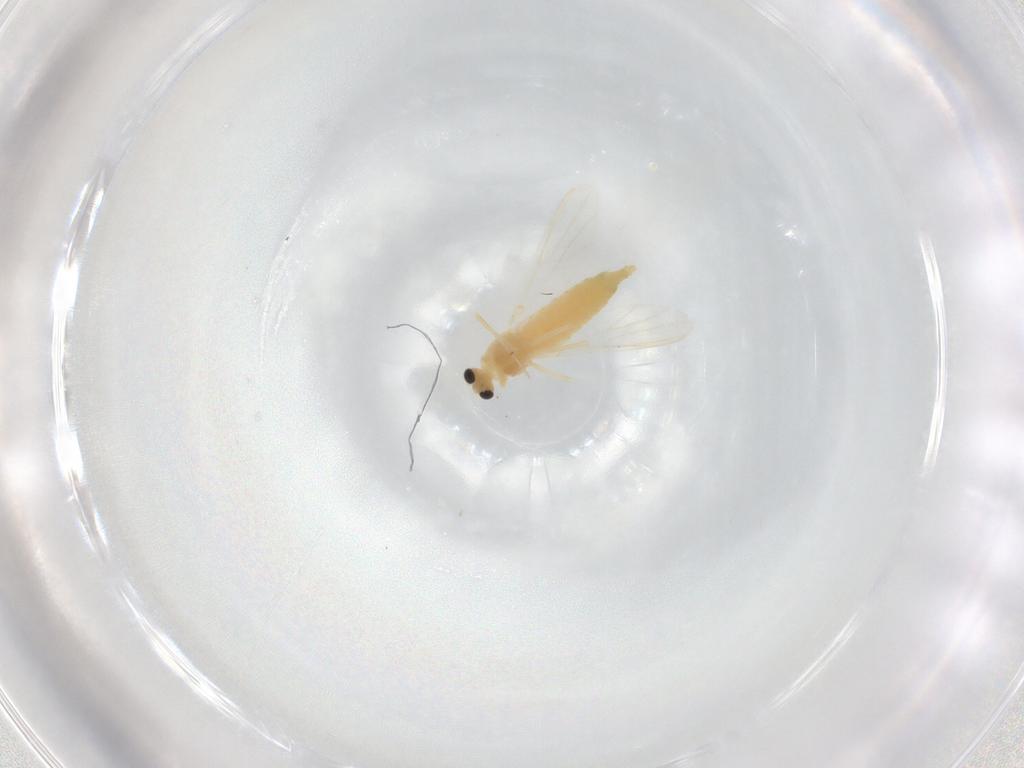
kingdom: Animalia
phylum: Arthropoda
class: Insecta
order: Diptera
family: Chironomidae
